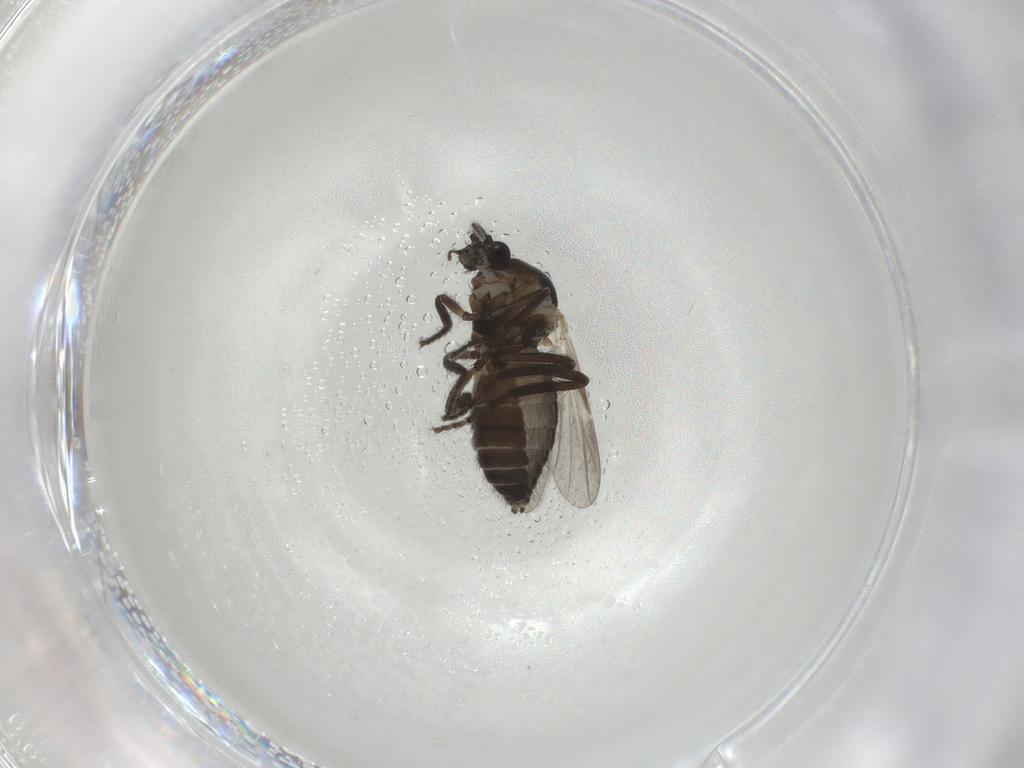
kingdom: Animalia
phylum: Arthropoda
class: Insecta
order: Diptera
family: Ceratopogonidae
